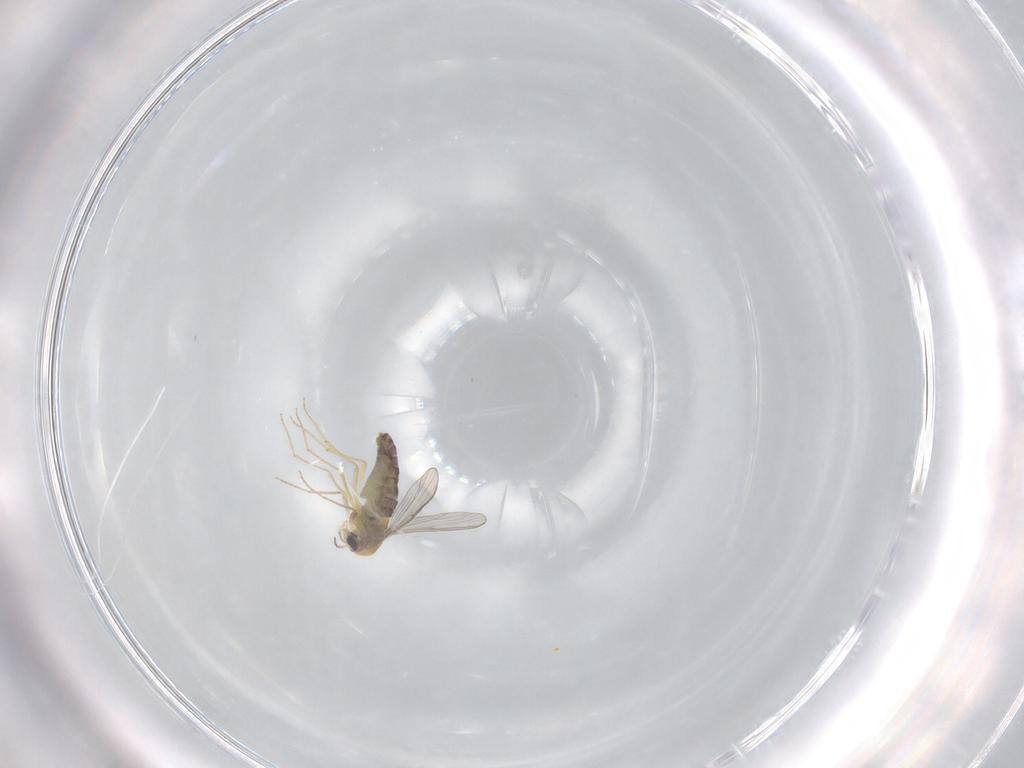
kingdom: Animalia
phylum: Arthropoda
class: Insecta
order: Diptera
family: Chironomidae
